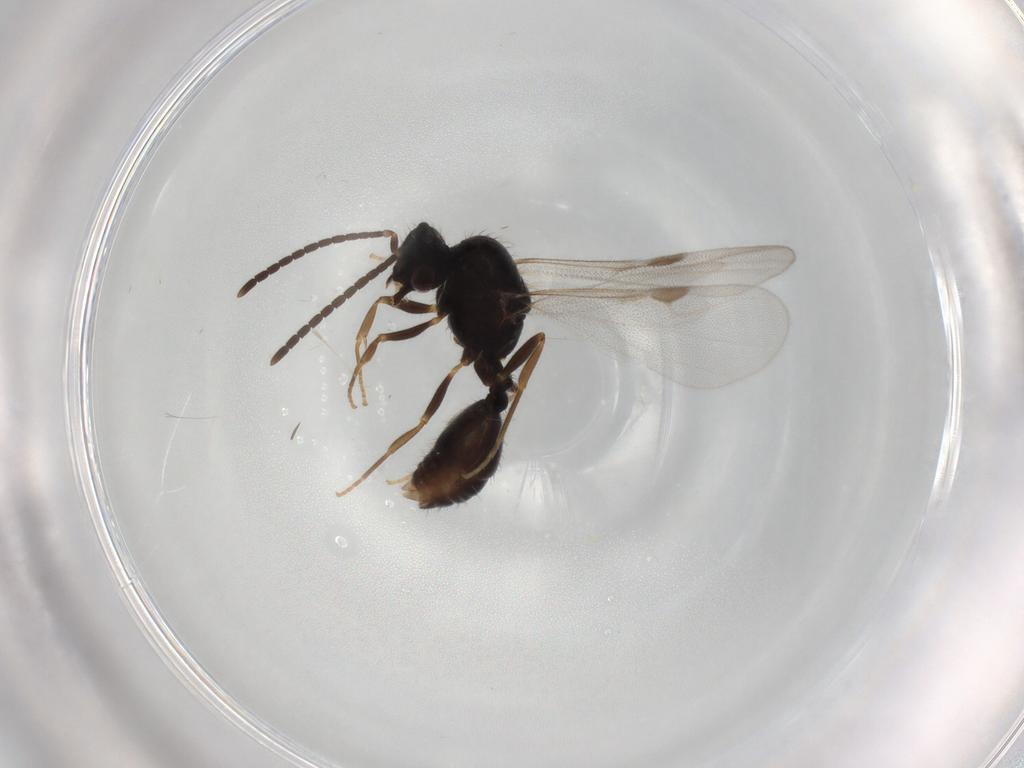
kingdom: Animalia
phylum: Arthropoda
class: Insecta
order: Hymenoptera
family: Formicidae
